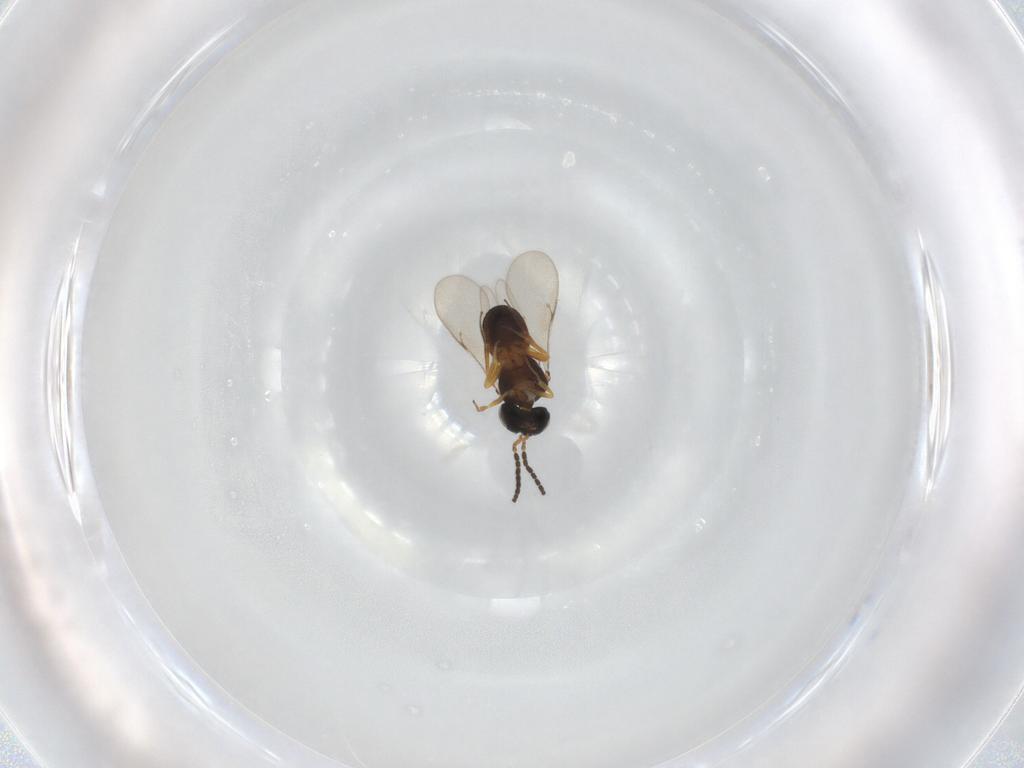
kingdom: Animalia
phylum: Arthropoda
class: Insecta
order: Hymenoptera
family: Scelionidae
